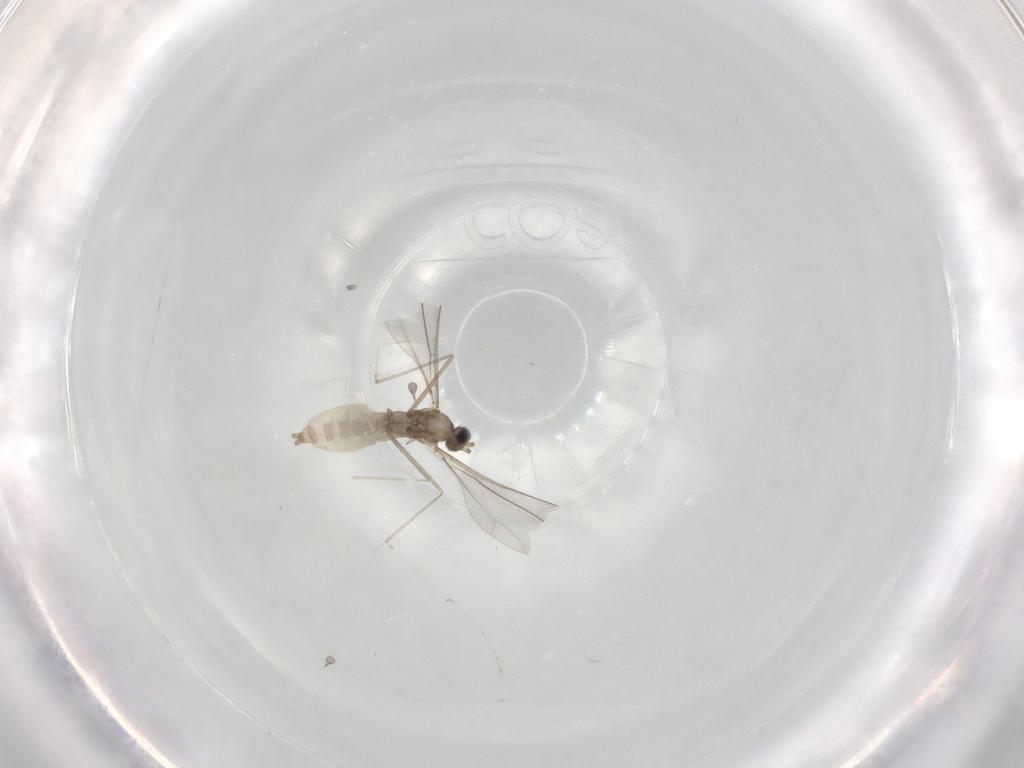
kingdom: Animalia
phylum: Arthropoda
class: Insecta
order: Diptera
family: Cecidomyiidae
